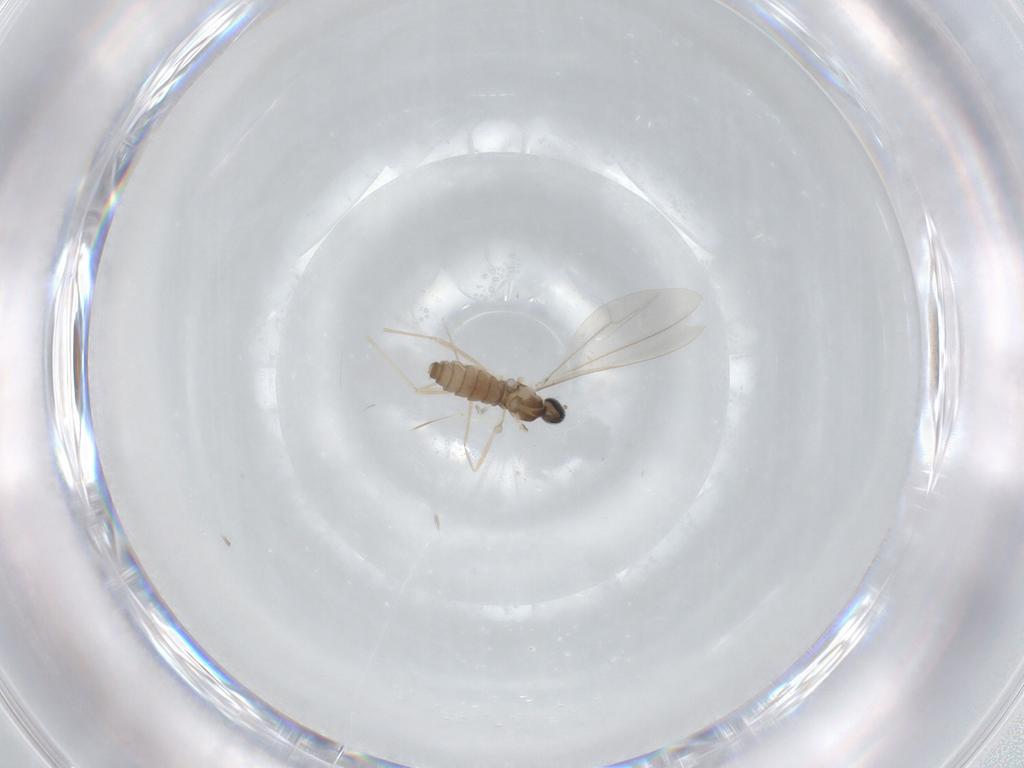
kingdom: Animalia
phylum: Arthropoda
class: Insecta
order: Diptera
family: Cecidomyiidae
